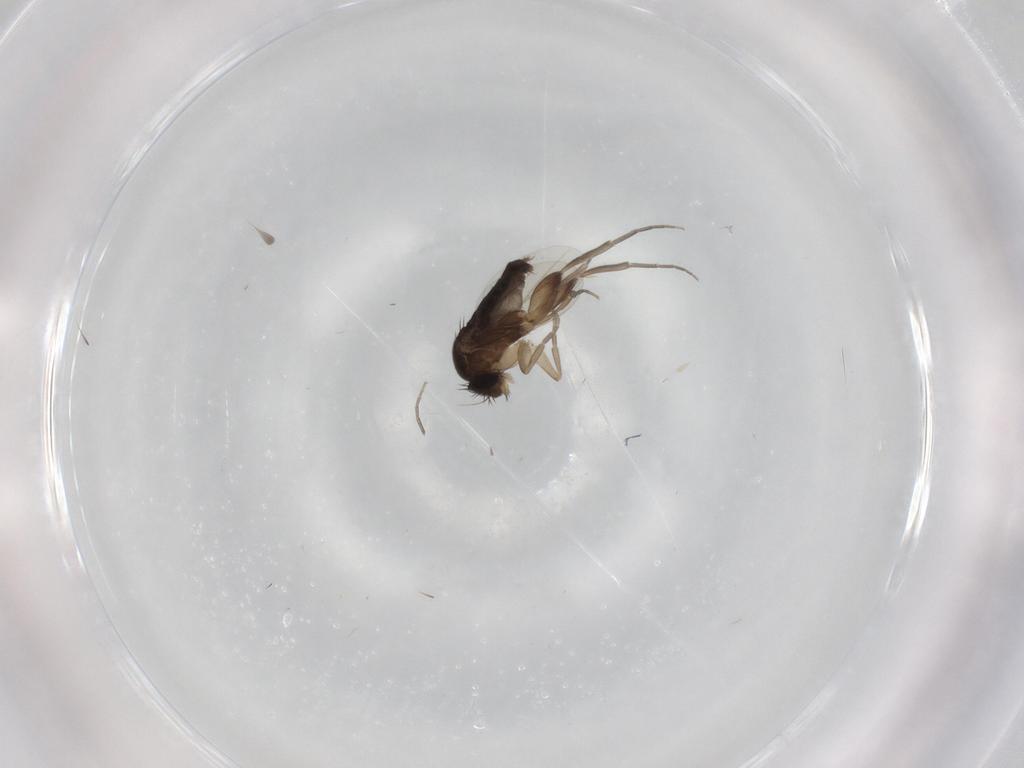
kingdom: Animalia
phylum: Arthropoda
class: Insecta
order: Diptera
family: Phoridae
